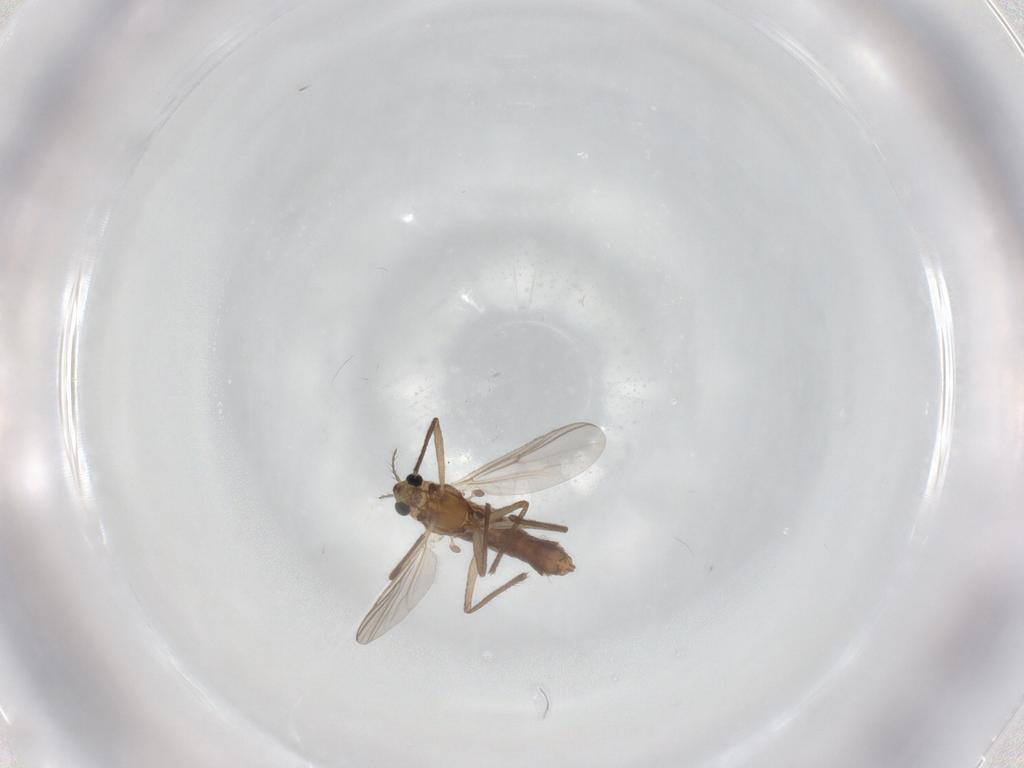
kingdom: Animalia
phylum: Arthropoda
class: Insecta
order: Diptera
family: Chironomidae
